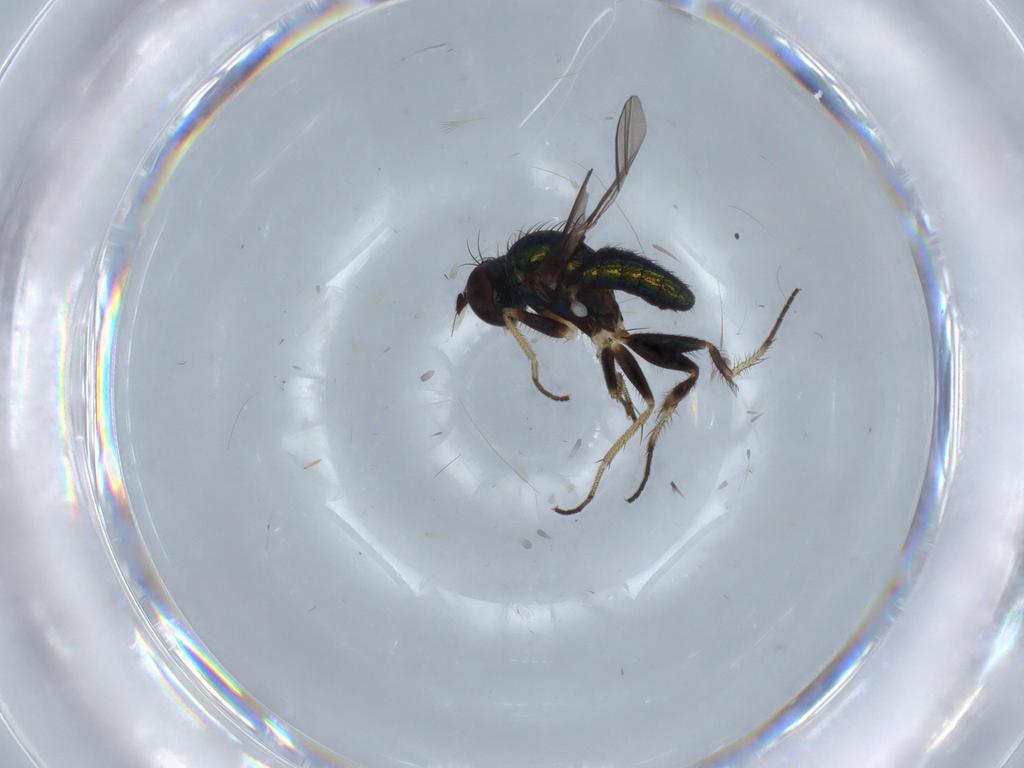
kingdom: Animalia
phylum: Arthropoda
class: Insecta
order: Diptera
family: Dolichopodidae
